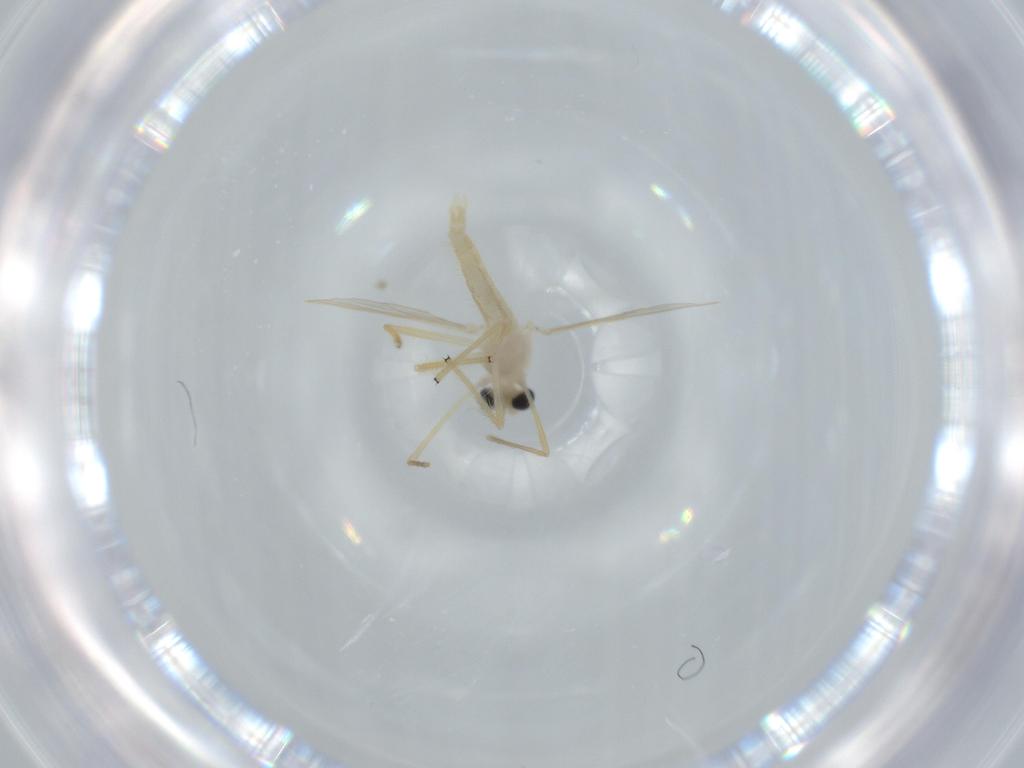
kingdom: Animalia
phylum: Arthropoda
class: Insecta
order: Diptera
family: Chironomidae
